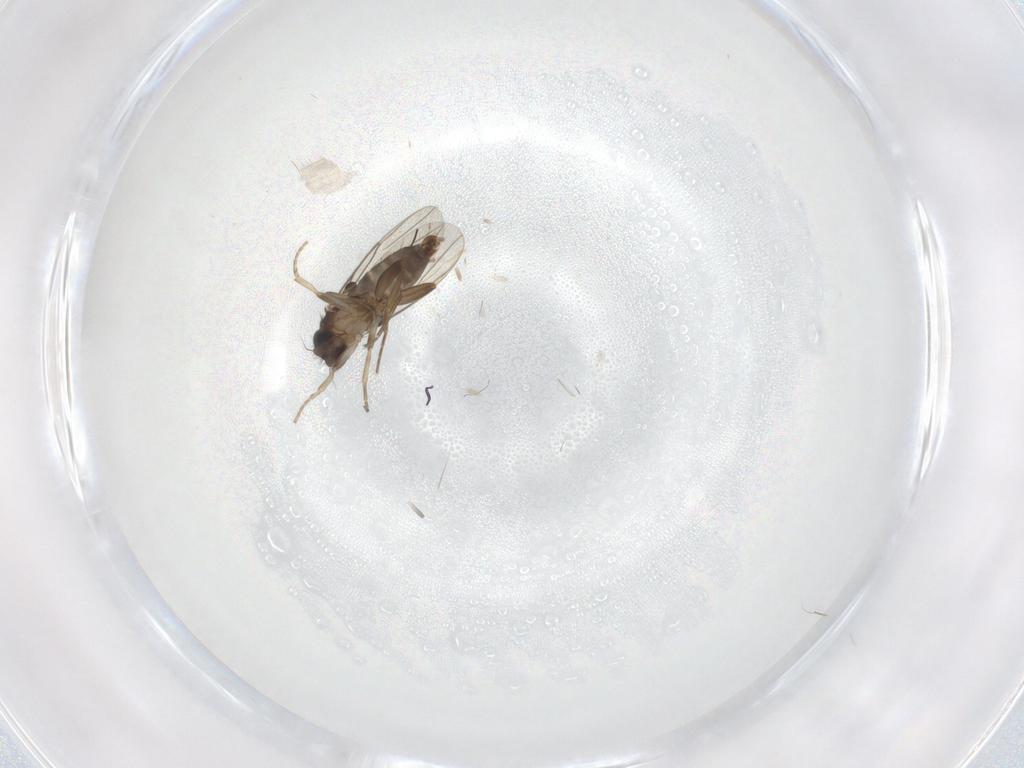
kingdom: Animalia
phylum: Arthropoda
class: Insecta
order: Diptera
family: Phoridae
